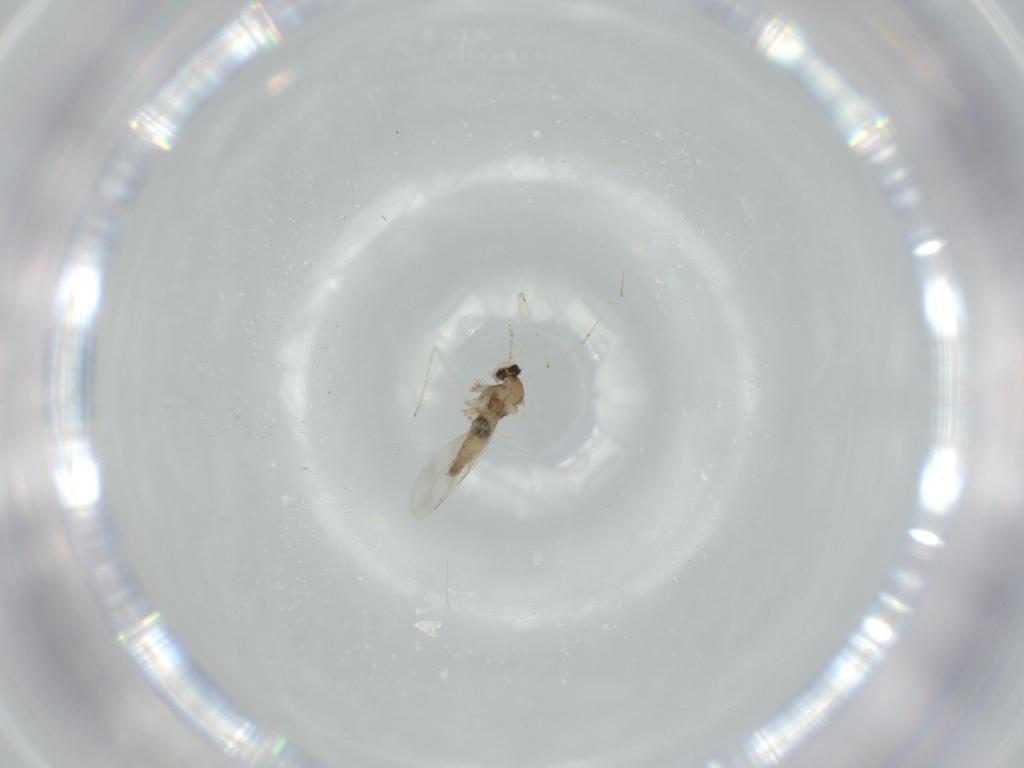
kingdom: Animalia
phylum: Arthropoda
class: Insecta
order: Diptera
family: Cecidomyiidae
